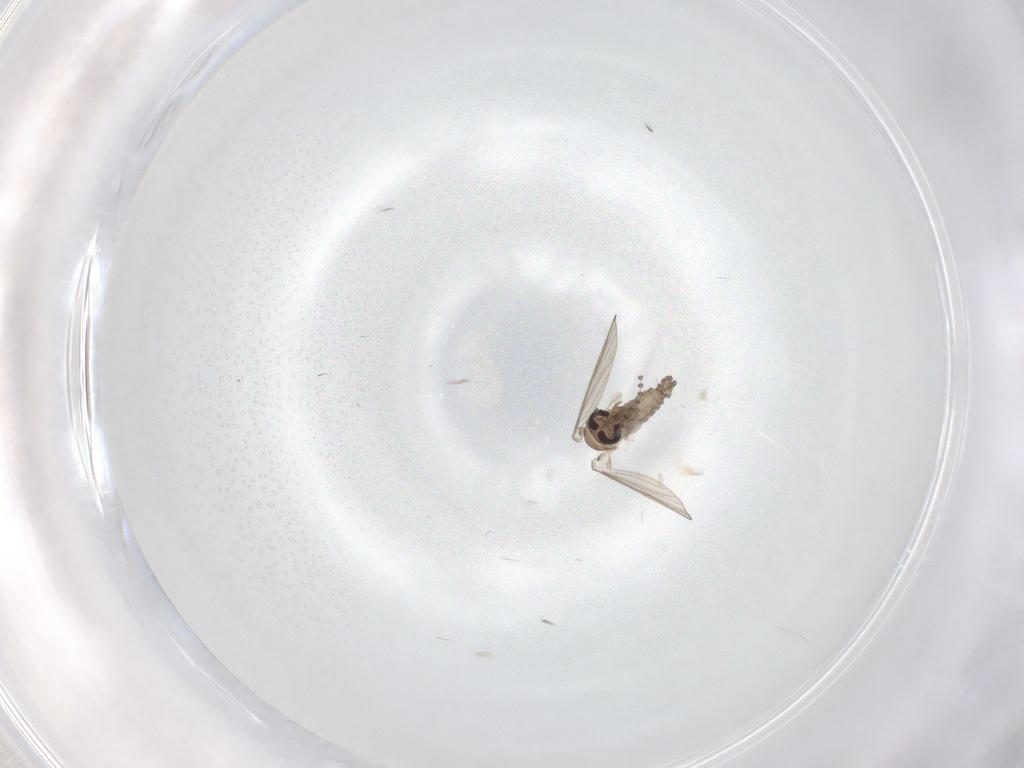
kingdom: Animalia
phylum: Arthropoda
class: Insecta
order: Diptera
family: Psychodidae
